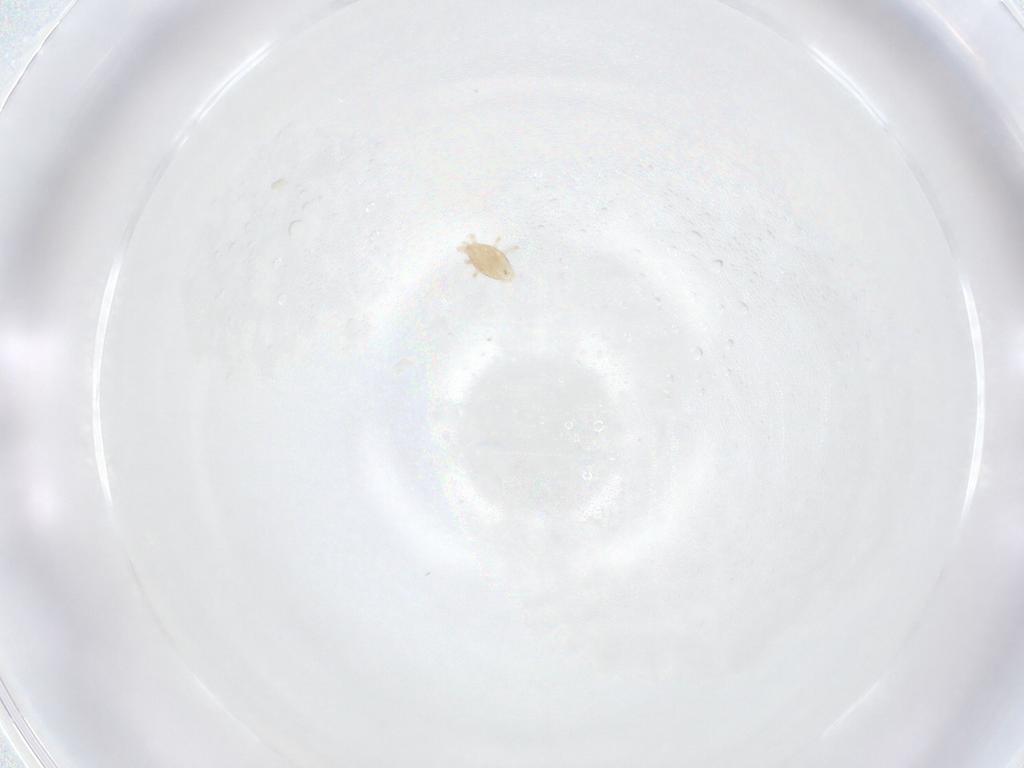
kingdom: Animalia
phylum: Arthropoda
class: Arachnida
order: Mesostigmata
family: Melicharidae
